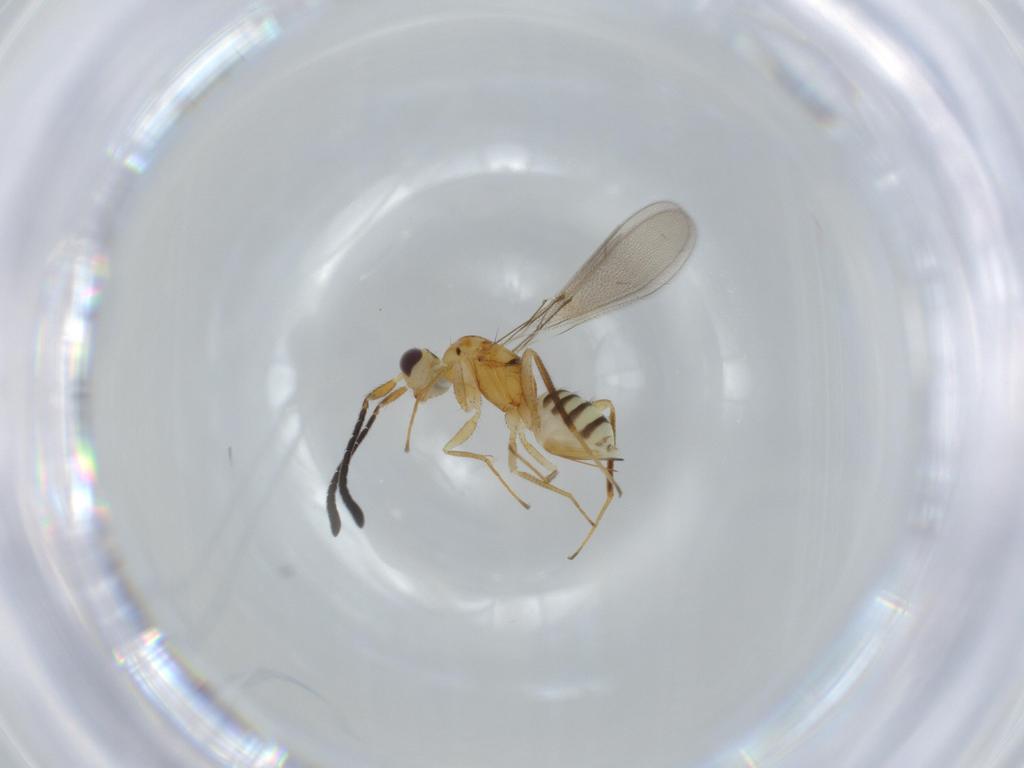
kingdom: Animalia
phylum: Arthropoda
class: Insecta
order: Hymenoptera
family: Mymaridae
